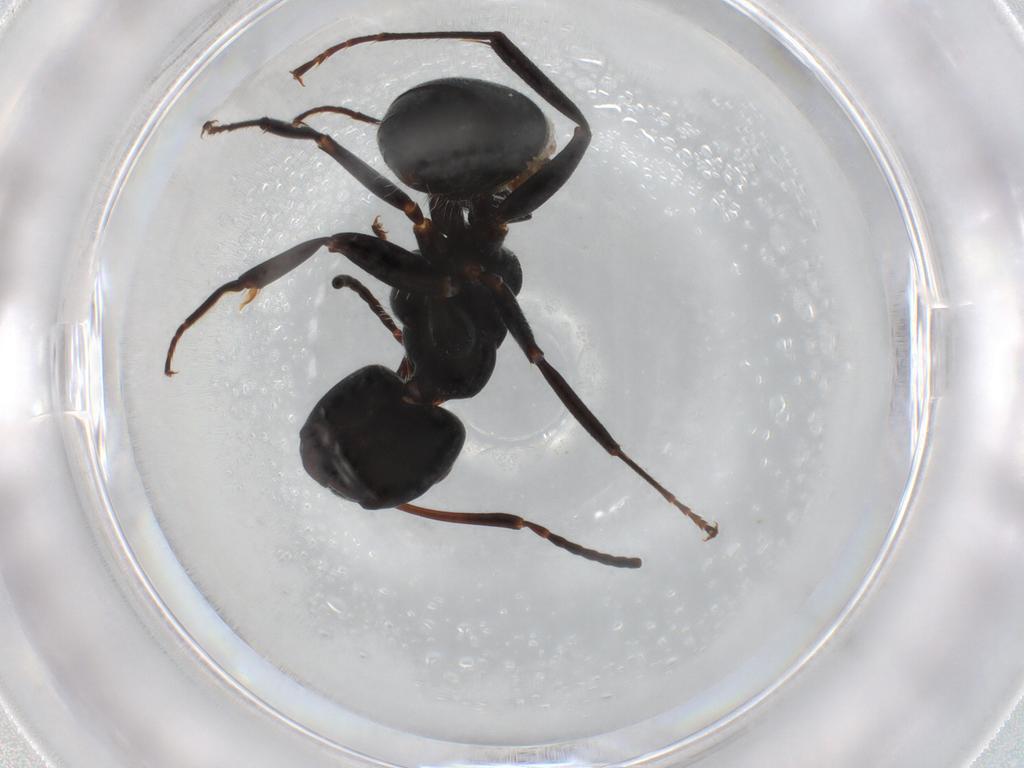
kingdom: Animalia
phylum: Arthropoda
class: Insecta
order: Hymenoptera
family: Formicidae
